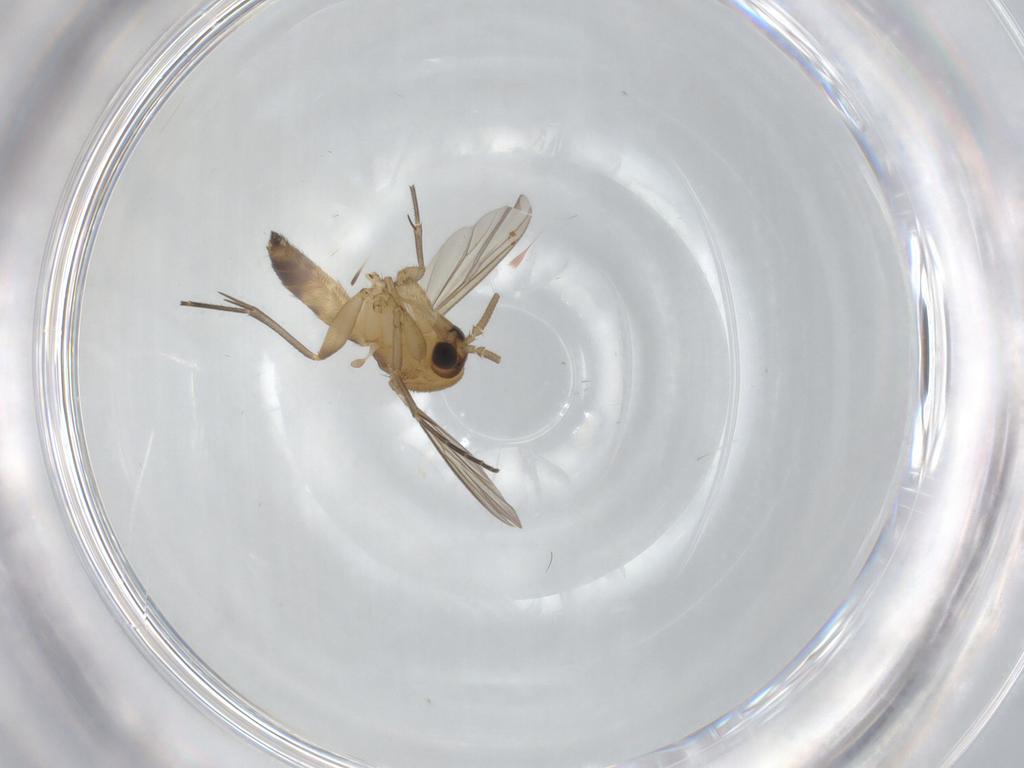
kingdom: Animalia
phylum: Arthropoda
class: Insecta
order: Diptera
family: Mycetophilidae
